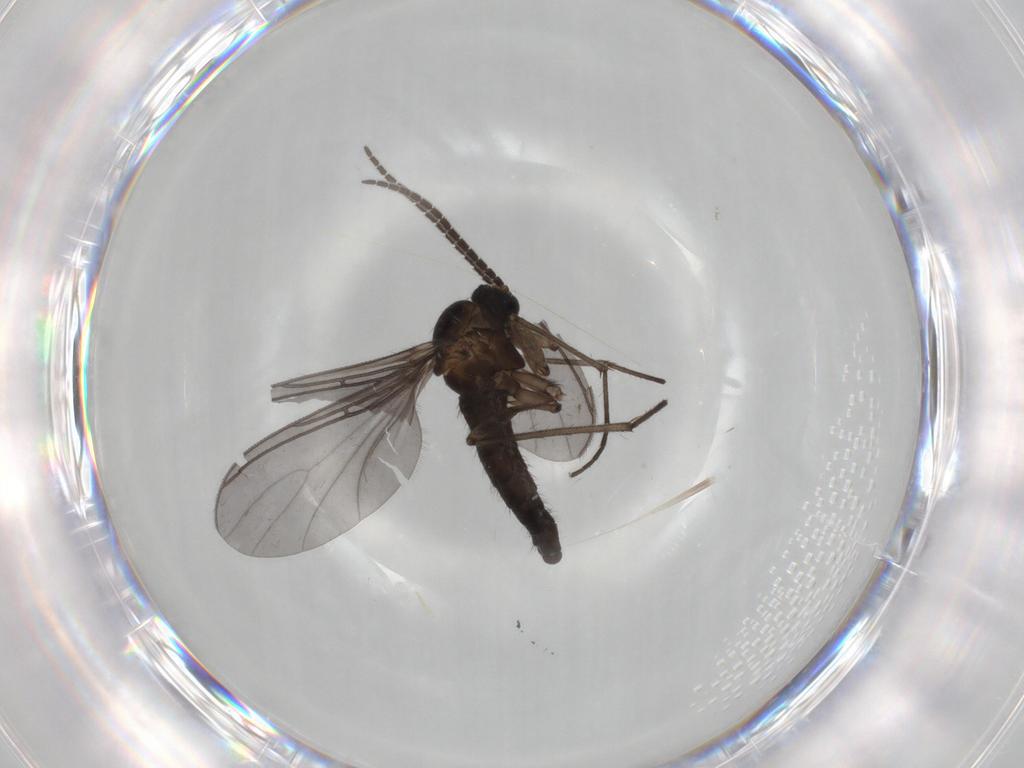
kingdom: Animalia
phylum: Arthropoda
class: Insecta
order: Diptera
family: Sciaridae
